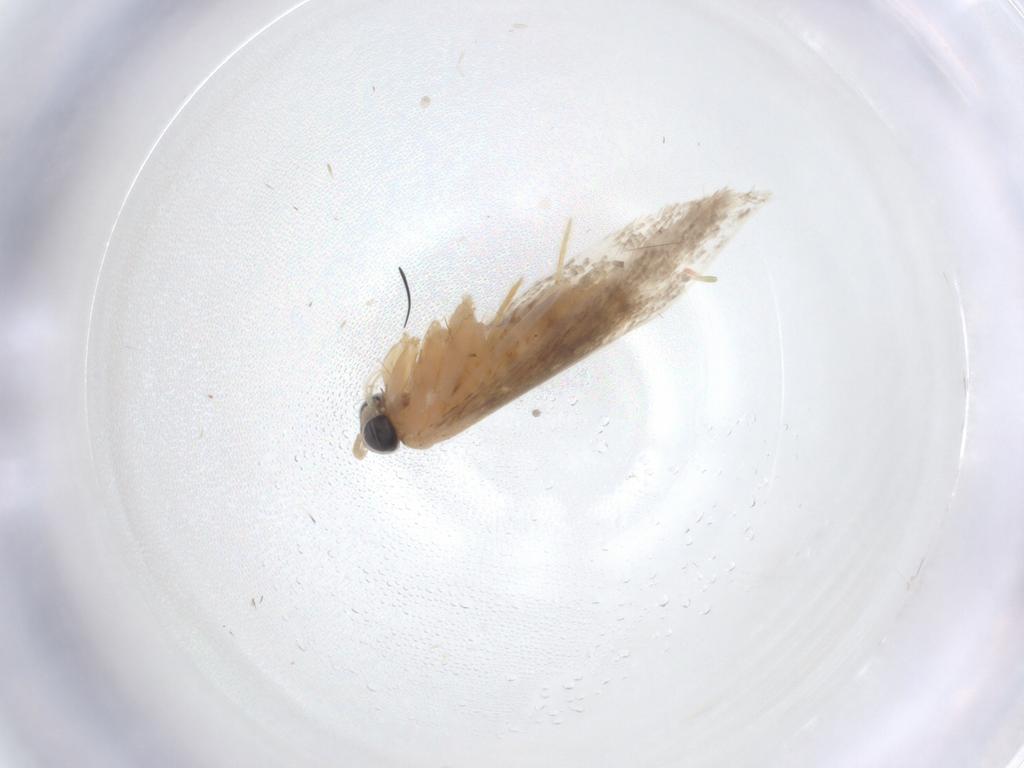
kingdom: Animalia
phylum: Arthropoda
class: Insecta
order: Lepidoptera
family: Crambidae
